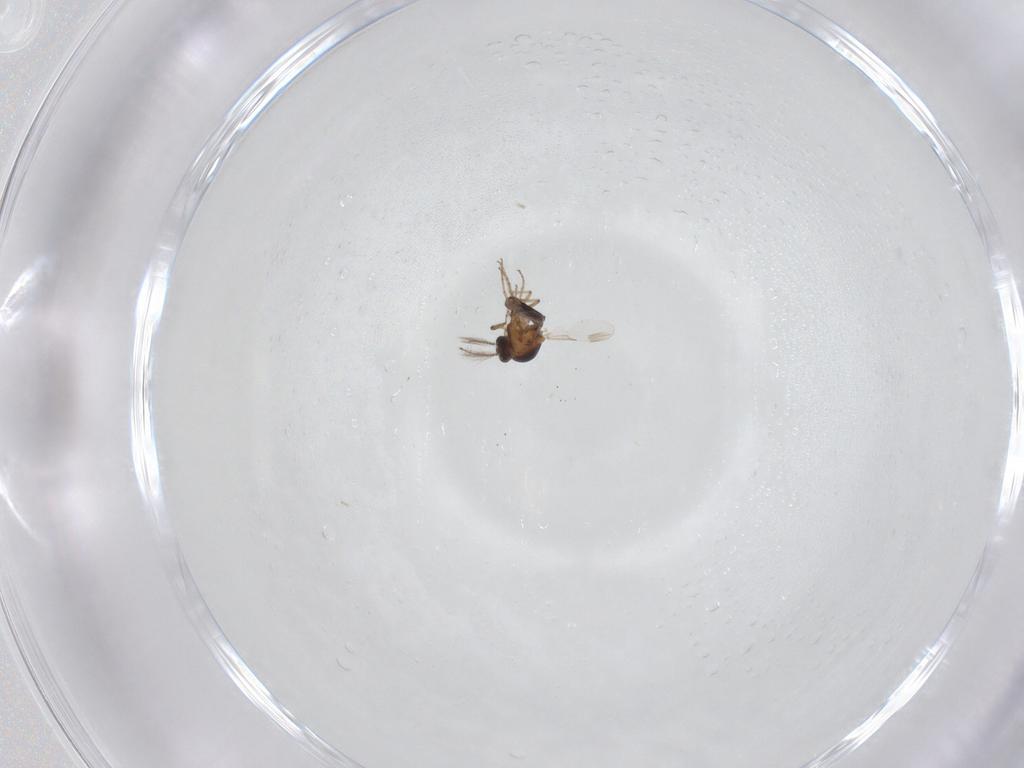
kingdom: Animalia
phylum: Arthropoda
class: Insecta
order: Diptera
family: Ceratopogonidae
